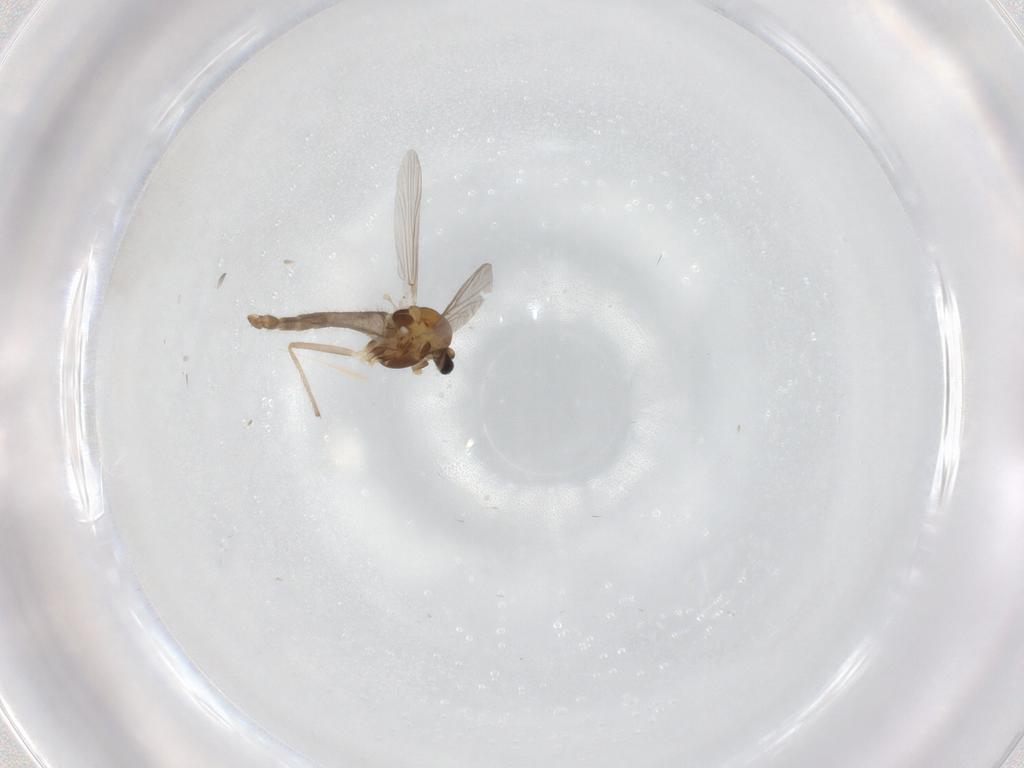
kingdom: Animalia
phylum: Arthropoda
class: Insecta
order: Diptera
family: Chironomidae
